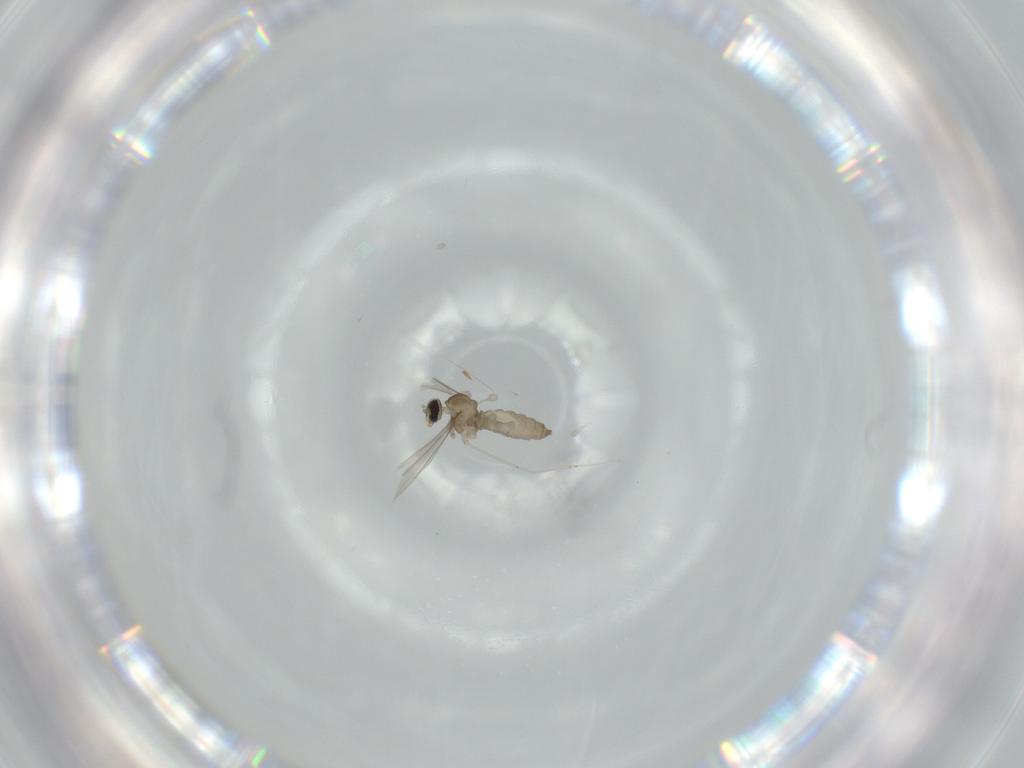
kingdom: Animalia
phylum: Arthropoda
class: Insecta
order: Diptera
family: Cecidomyiidae
